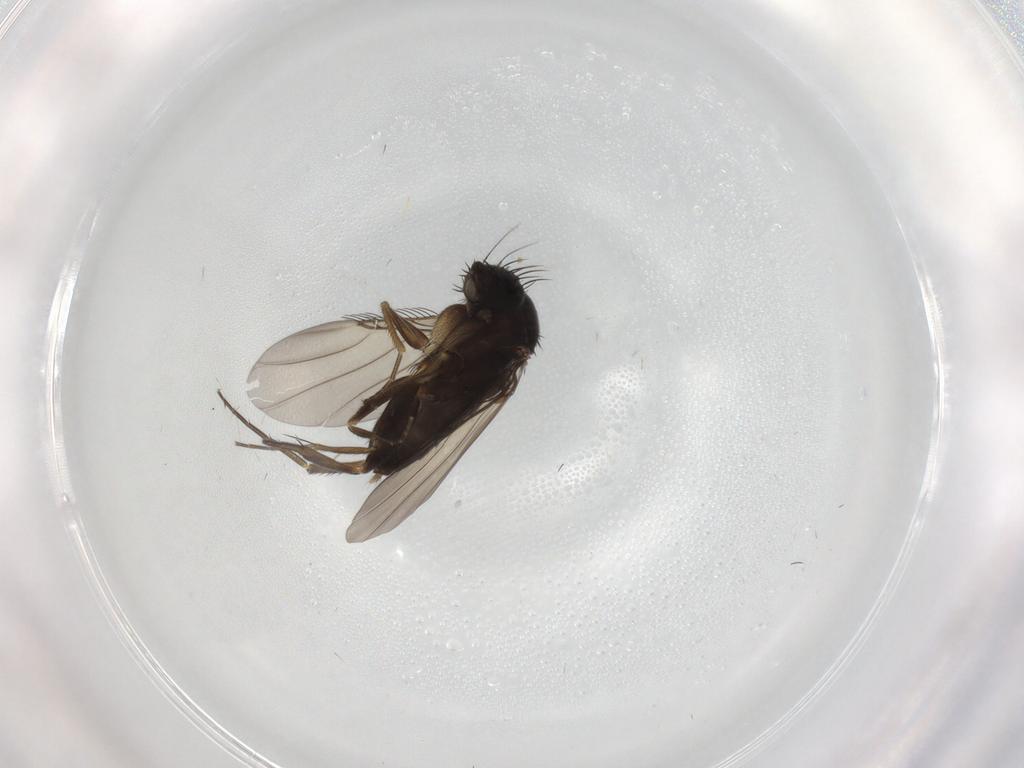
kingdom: Animalia
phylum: Arthropoda
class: Insecta
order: Diptera
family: Phoridae
